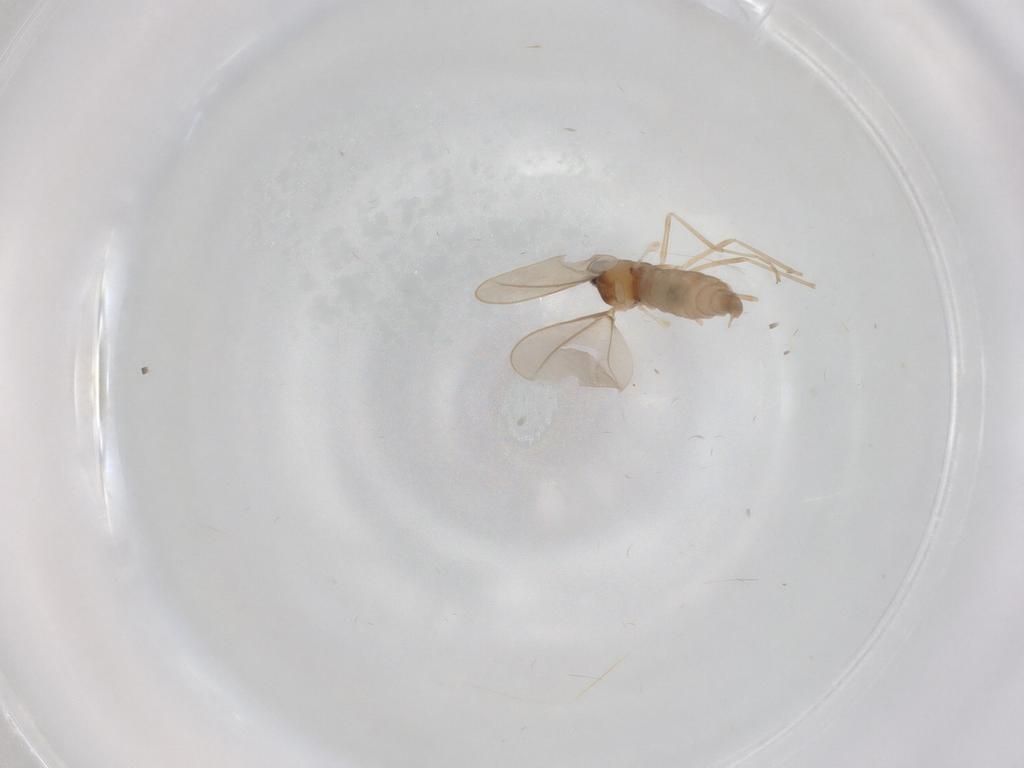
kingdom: Animalia
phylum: Arthropoda
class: Insecta
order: Diptera
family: Cecidomyiidae
